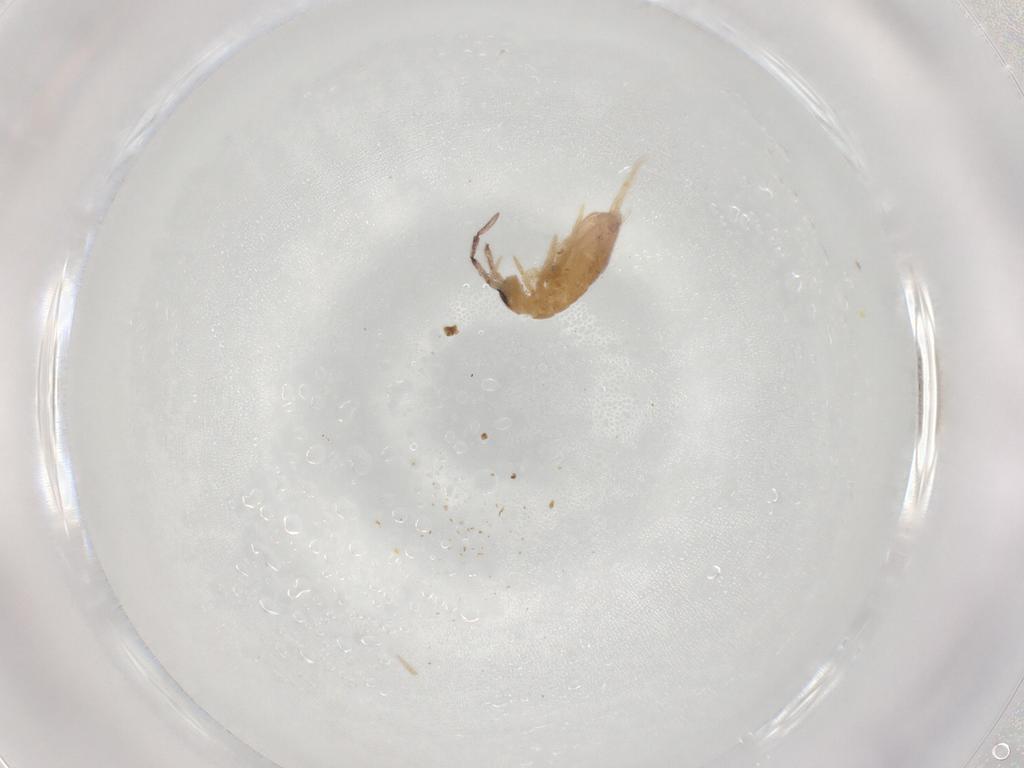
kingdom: Animalia
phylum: Arthropoda
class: Collembola
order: Entomobryomorpha
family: Entomobryidae
